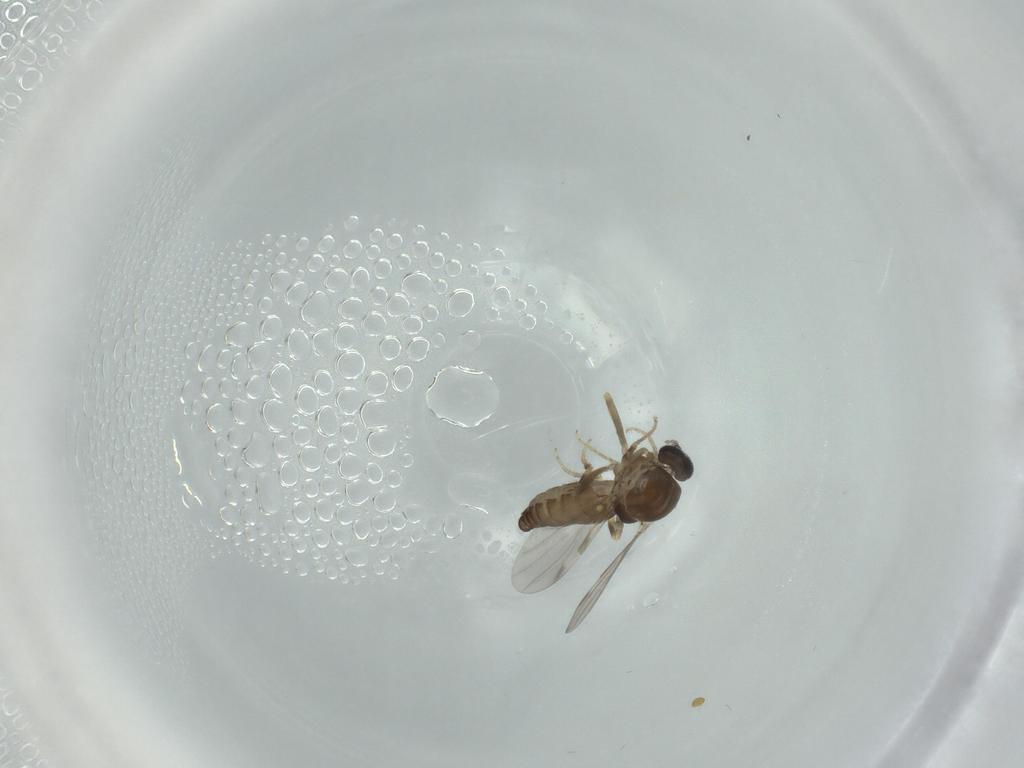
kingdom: Animalia
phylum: Arthropoda
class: Insecta
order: Diptera
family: Ceratopogonidae
